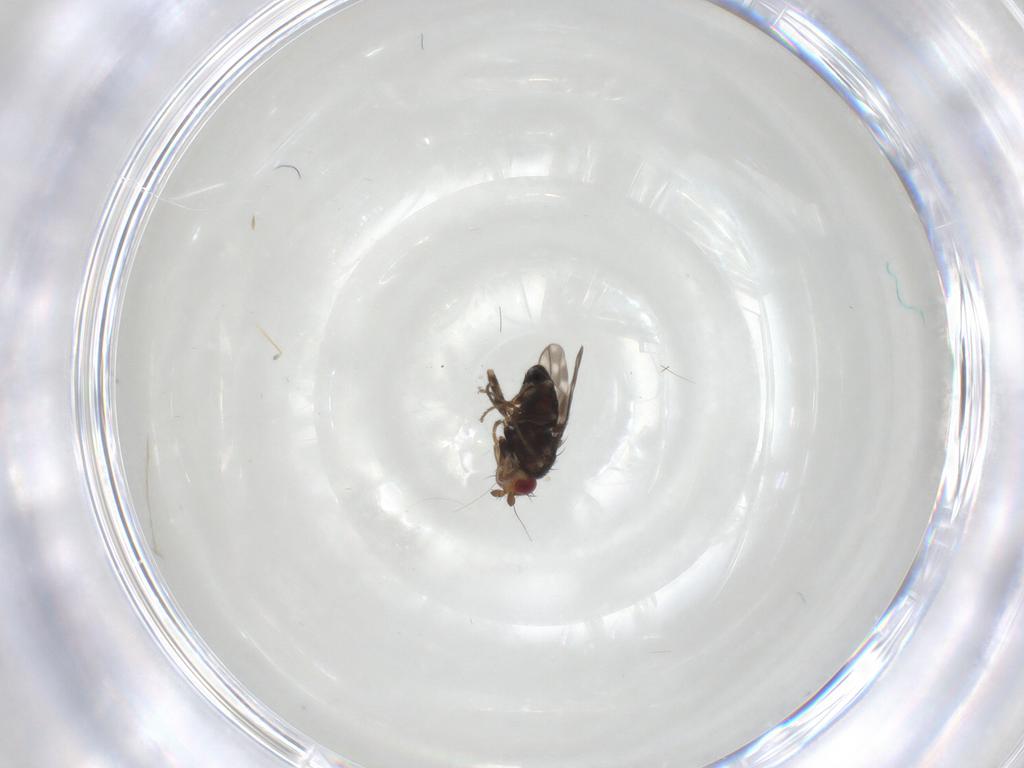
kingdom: Animalia
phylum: Arthropoda
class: Insecta
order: Diptera
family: Sphaeroceridae
